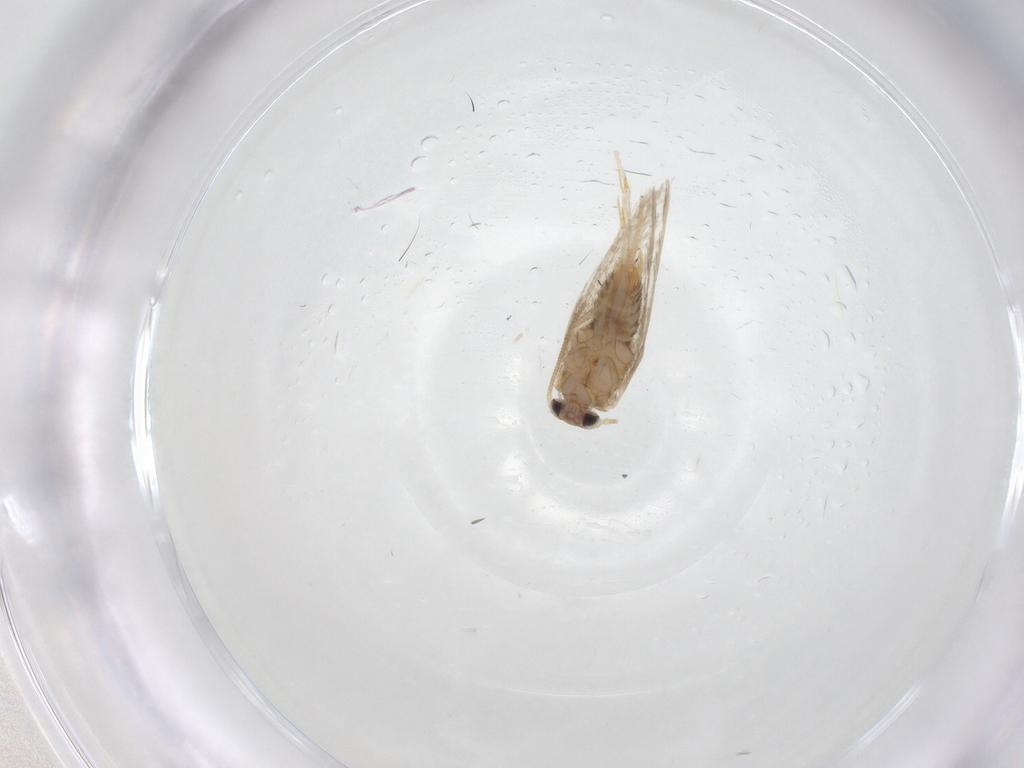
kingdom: Animalia
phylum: Arthropoda
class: Insecta
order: Lepidoptera
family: Nepticulidae
